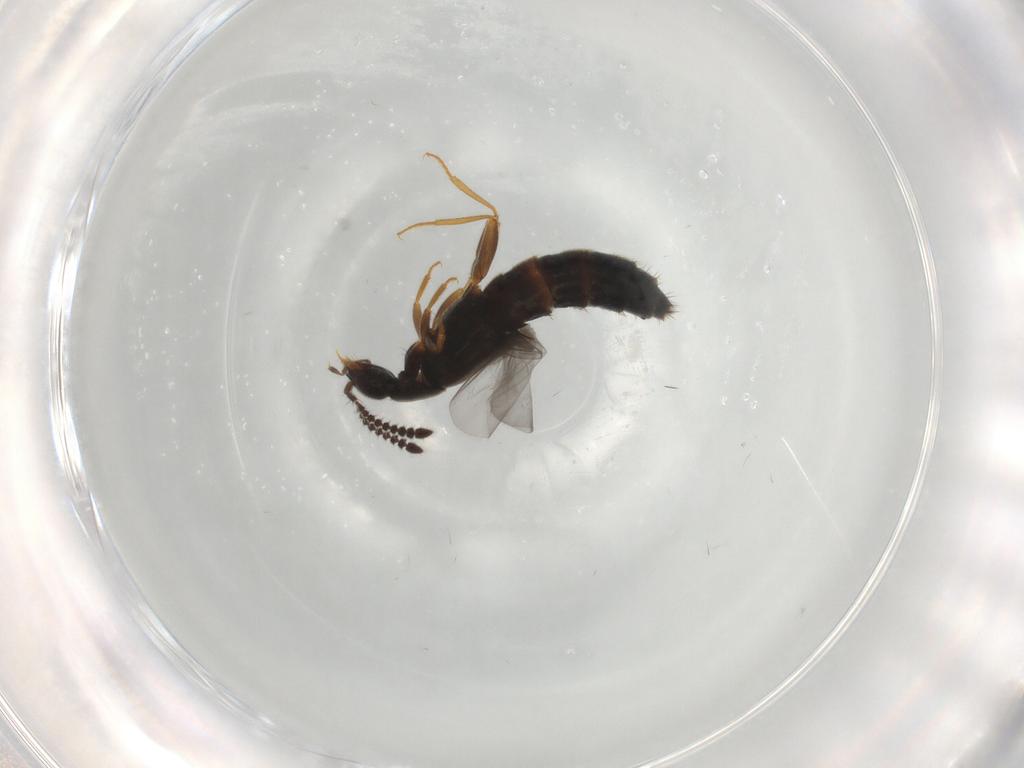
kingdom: Animalia
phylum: Arthropoda
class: Insecta
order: Coleoptera
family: Staphylinidae
